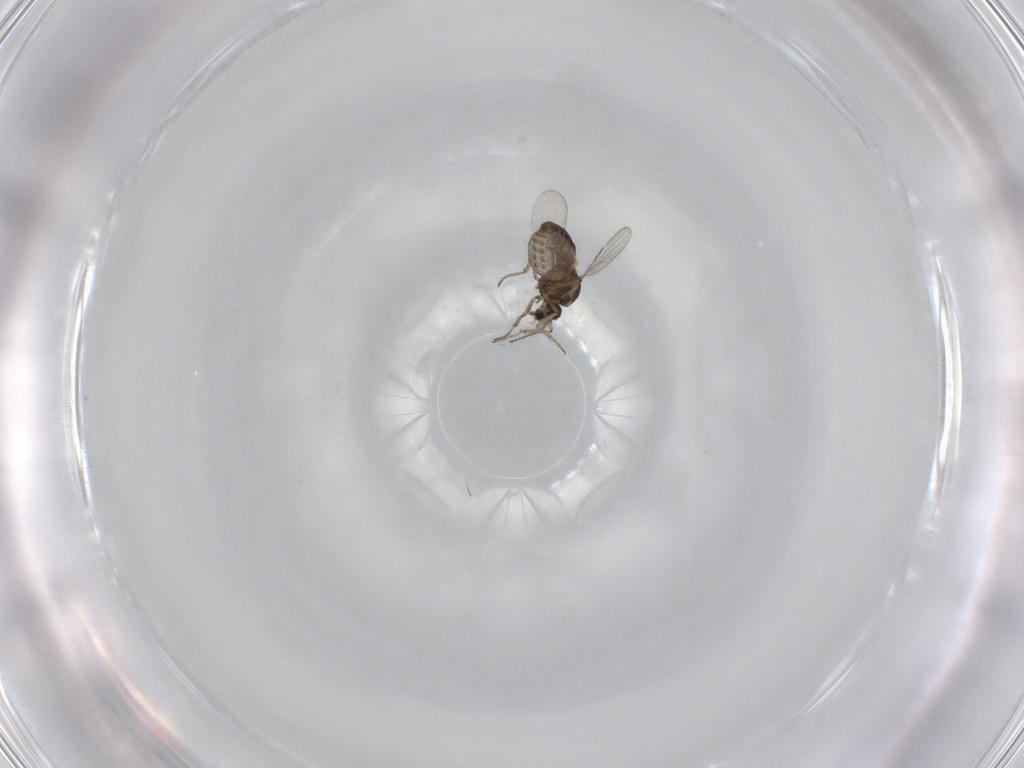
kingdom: Animalia
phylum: Arthropoda
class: Insecta
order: Diptera
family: Ceratopogonidae
